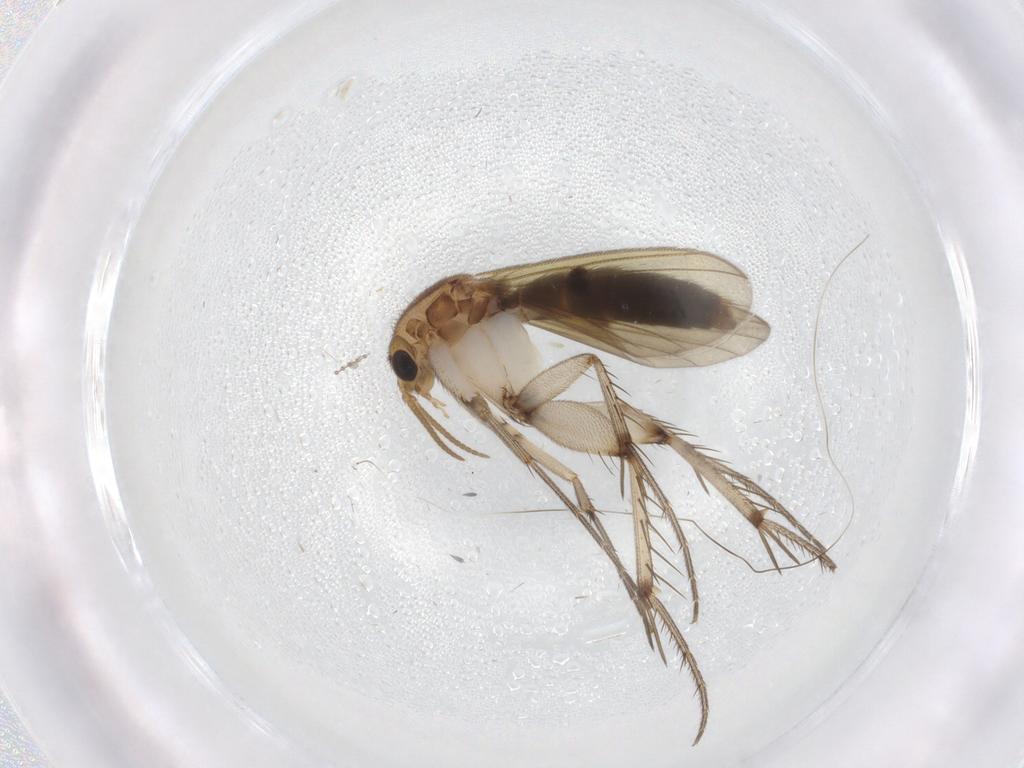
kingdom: Animalia
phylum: Arthropoda
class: Insecta
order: Diptera
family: Mycetophilidae
